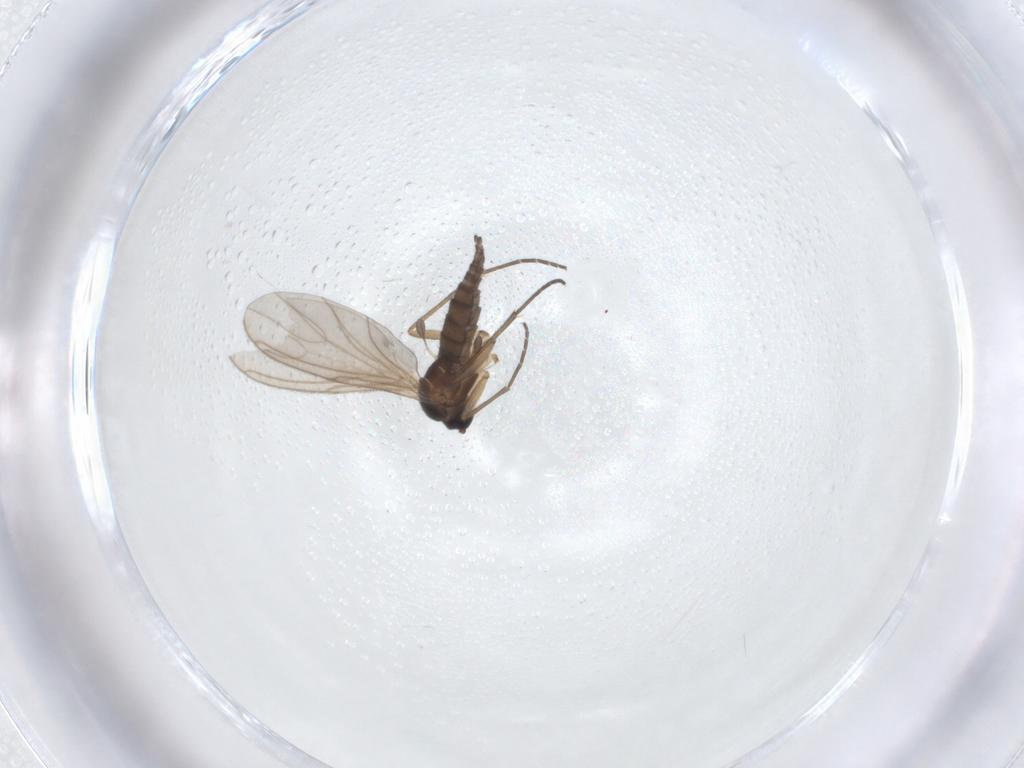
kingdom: Animalia
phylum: Arthropoda
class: Insecta
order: Diptera
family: Sciaridae
